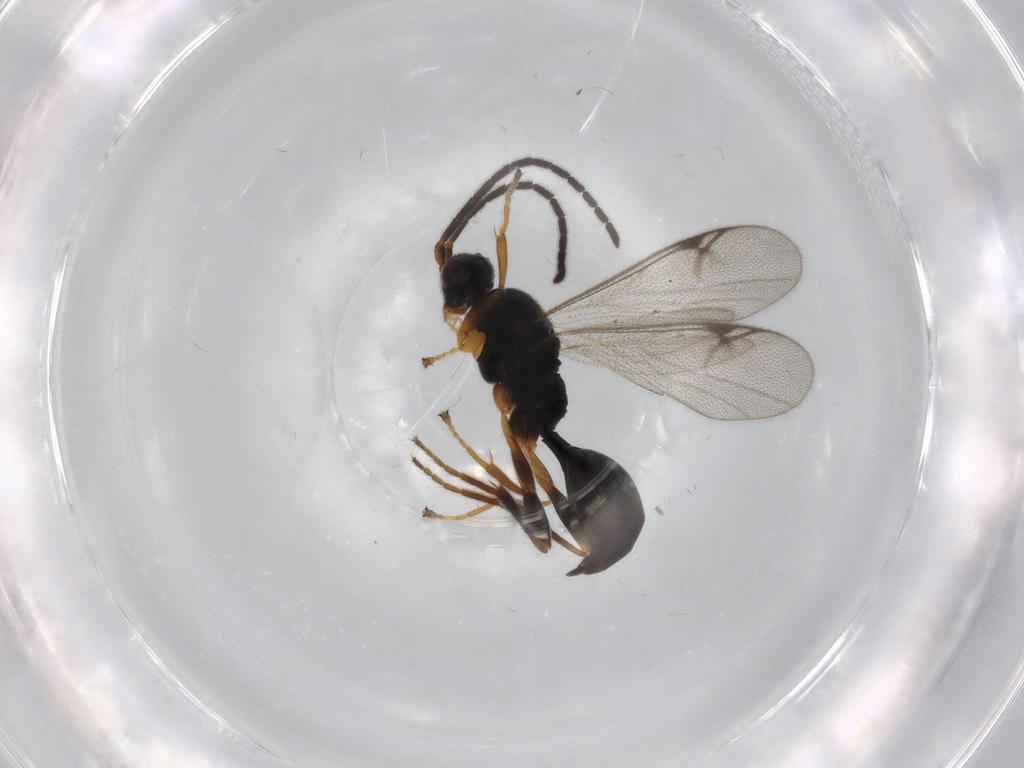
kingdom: Animalia
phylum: Arthropoda
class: Insecta
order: Hymenoptera
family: Proctotrupidae
